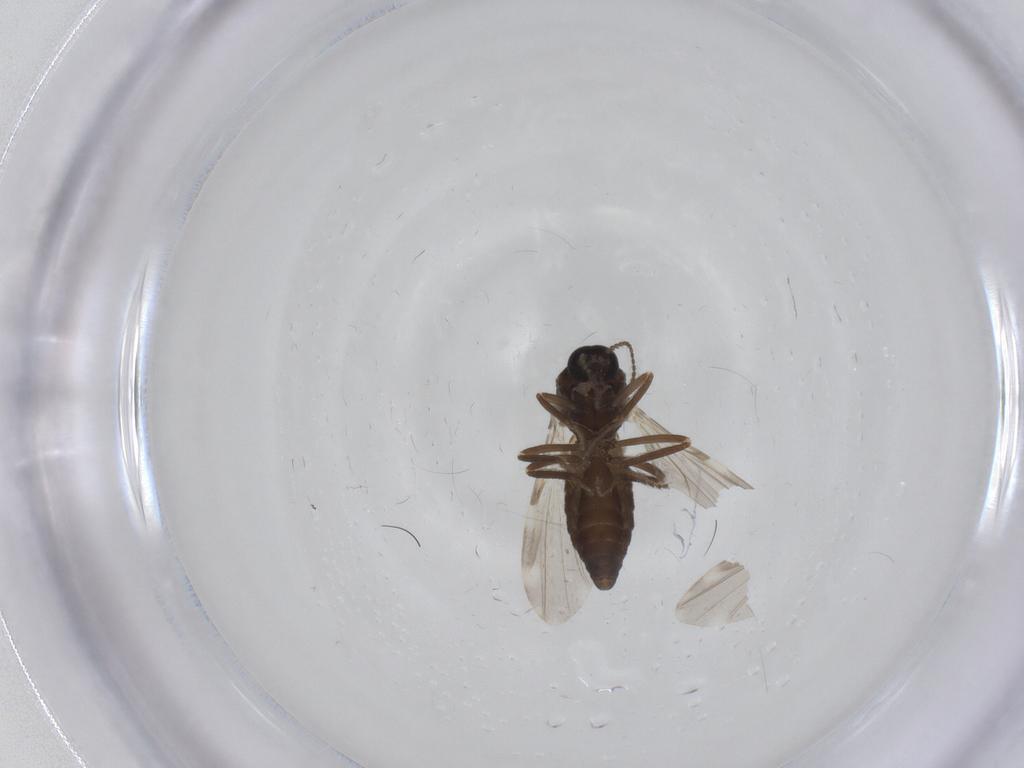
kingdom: Animalia
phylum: Arthropoda
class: Insecta
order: Diptera
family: Ceratopogonidae
